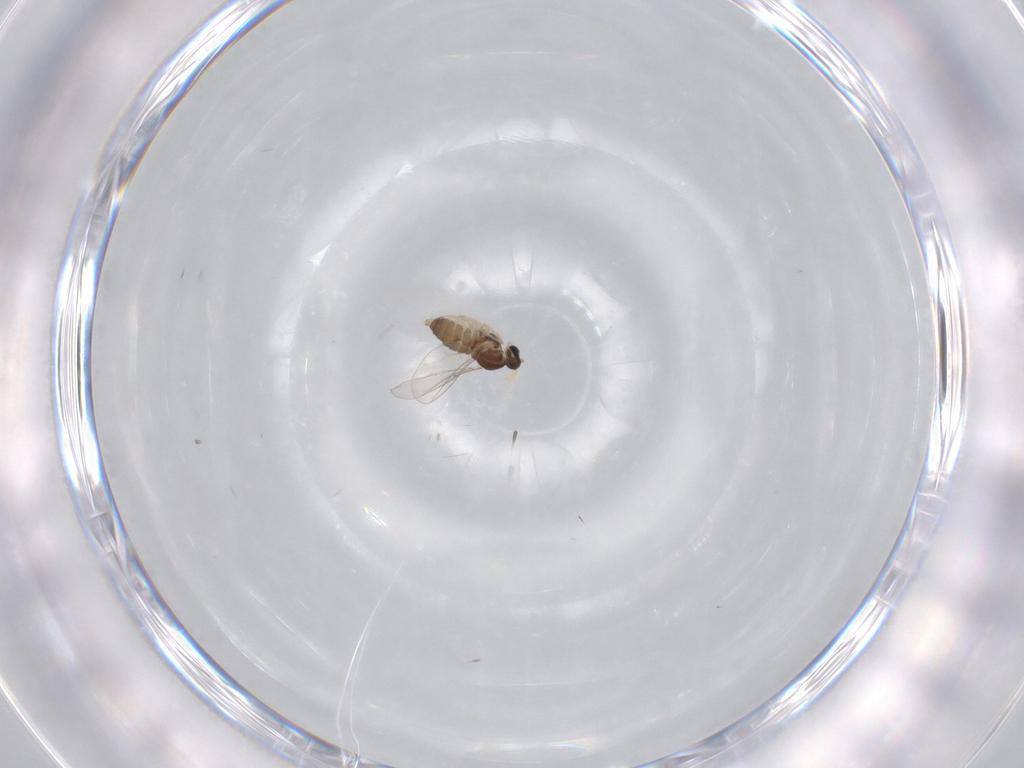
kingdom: Animalia
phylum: Arthropoda
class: Insecta
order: Diptera
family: Cecidomyiidae
